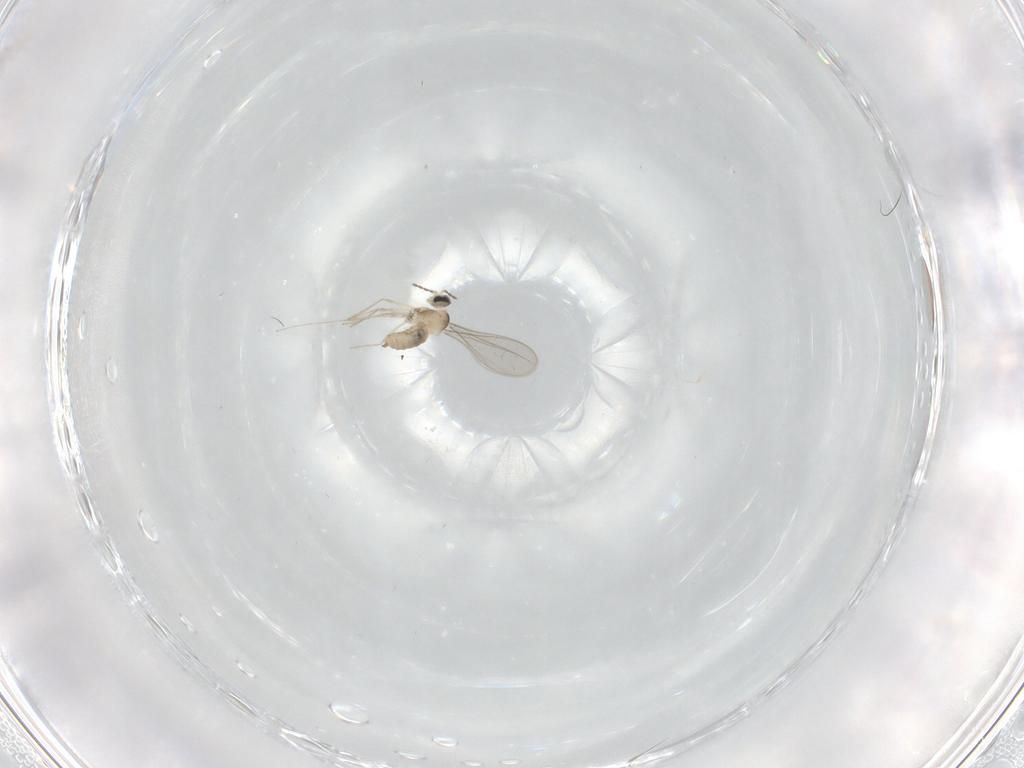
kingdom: Animalia
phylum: Arthropoda
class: Insecta
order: Diptera
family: Cecidomyiidae
